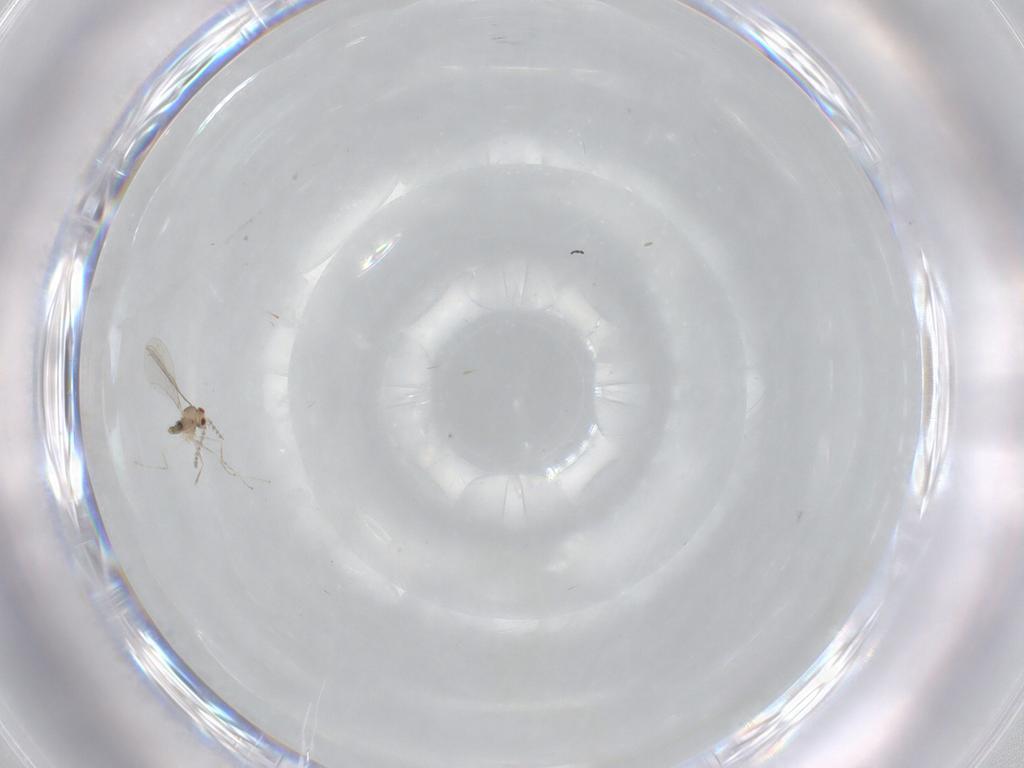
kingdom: Animalia
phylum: Arthropoda
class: Insecta
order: Diptera
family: Cecidomyiidae
